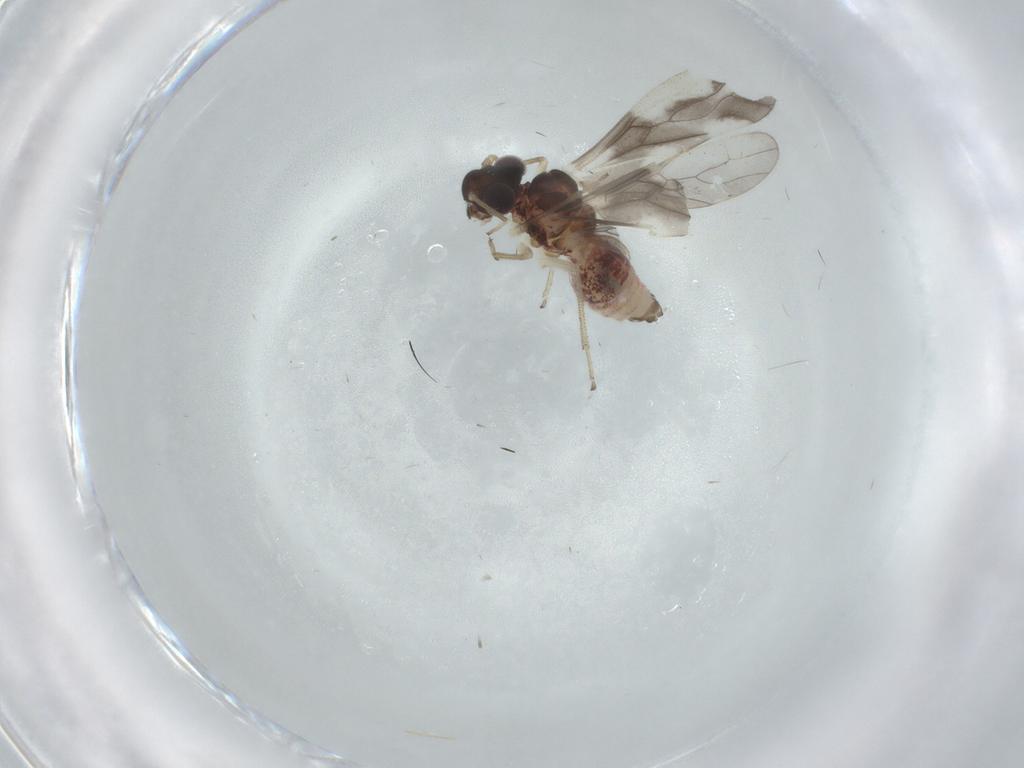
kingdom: Animalia
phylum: Arthropoda
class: Insecta
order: Psocodea
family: Caeciliusidae
